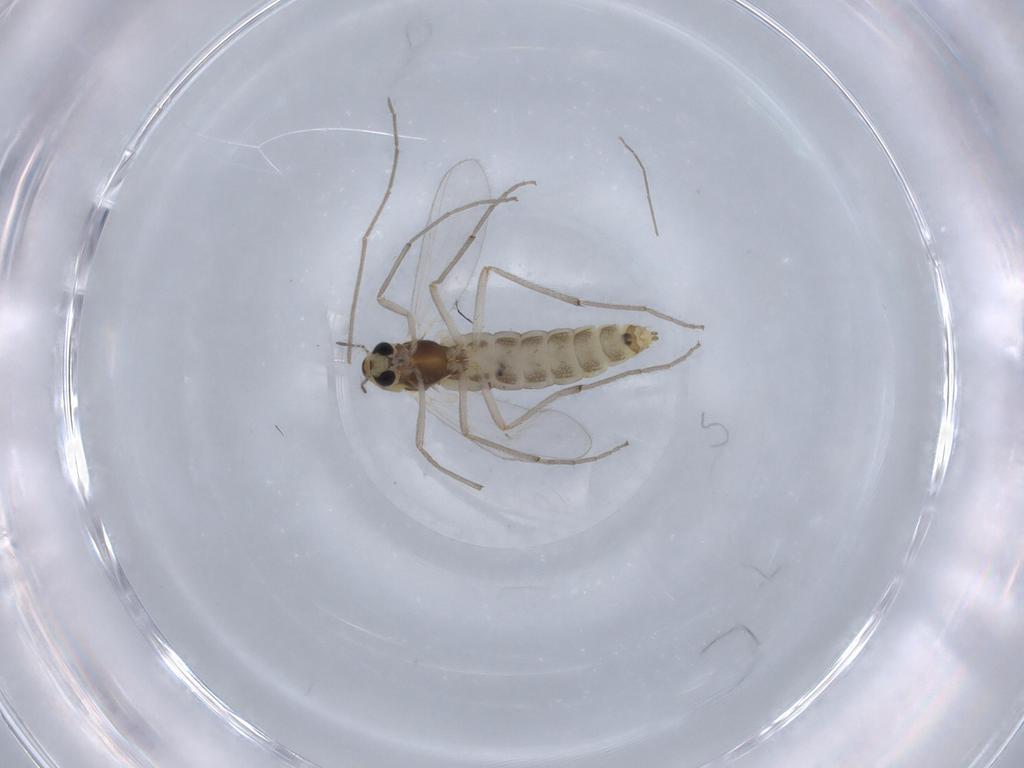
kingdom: Animalia
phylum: Arthropoda
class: Insecta
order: Diptera
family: Chironomidae
